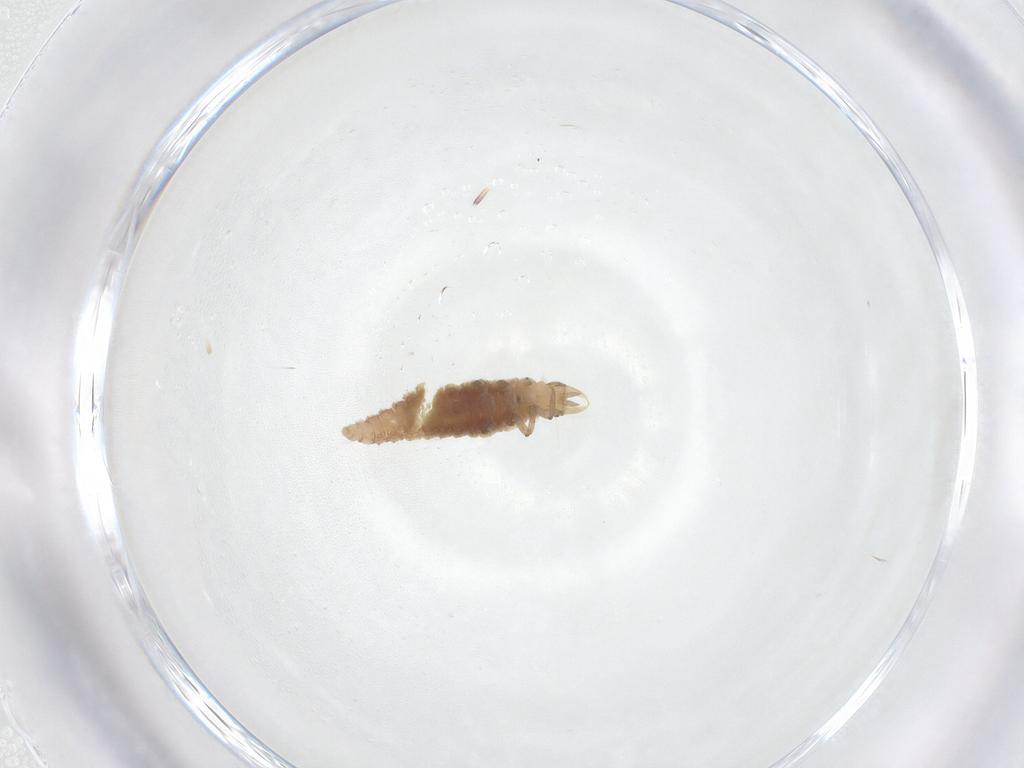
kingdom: Animalia
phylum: Arthropoda
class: Insecta
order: Neuroptera
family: Hemerobiidae
